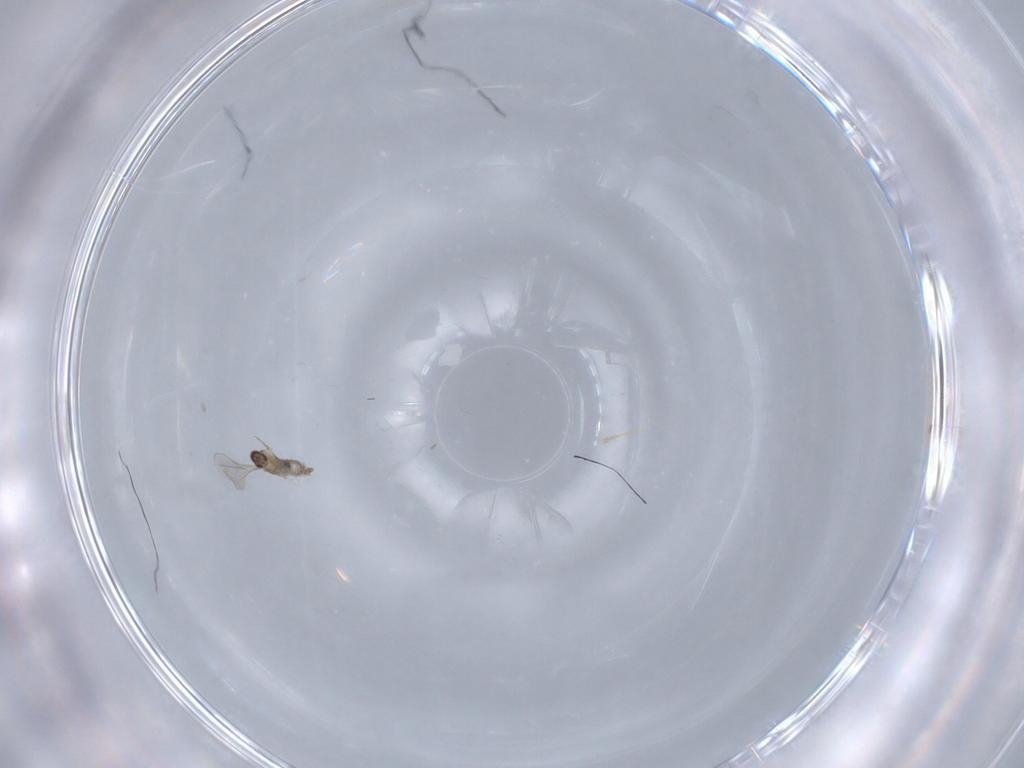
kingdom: Animalia
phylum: Arthropoda
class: Insecta
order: Diptera
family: Cecidomyiidae
